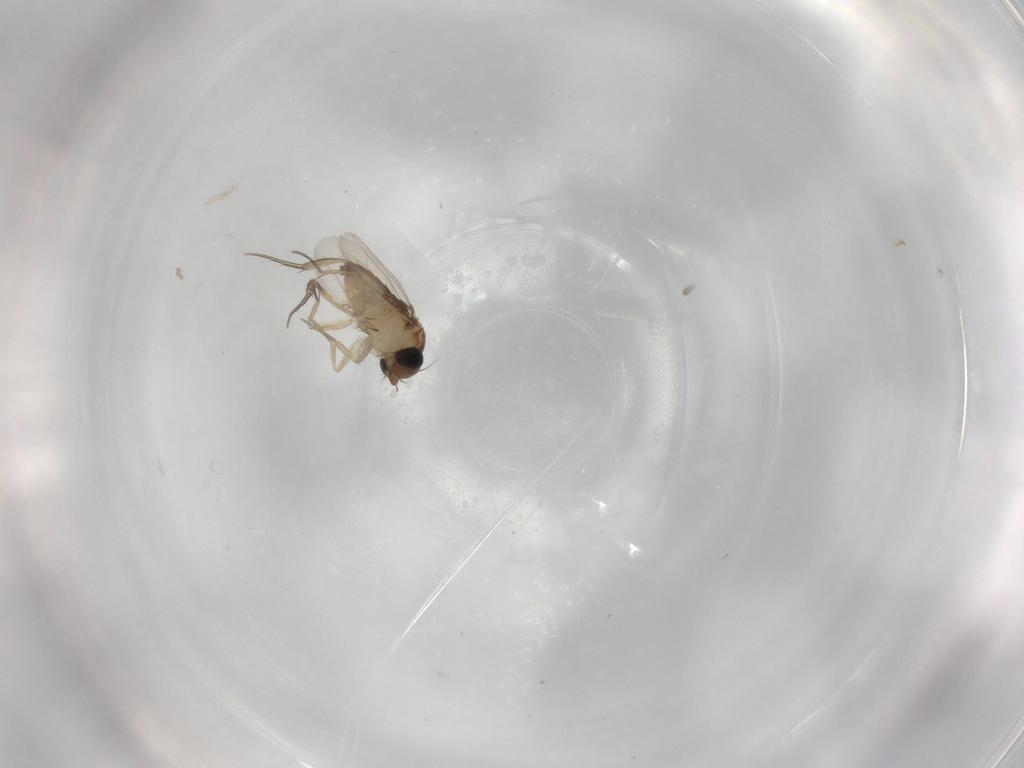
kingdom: Animalia
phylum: Arthropoda
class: Insecta
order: Diptera
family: Phoridae
